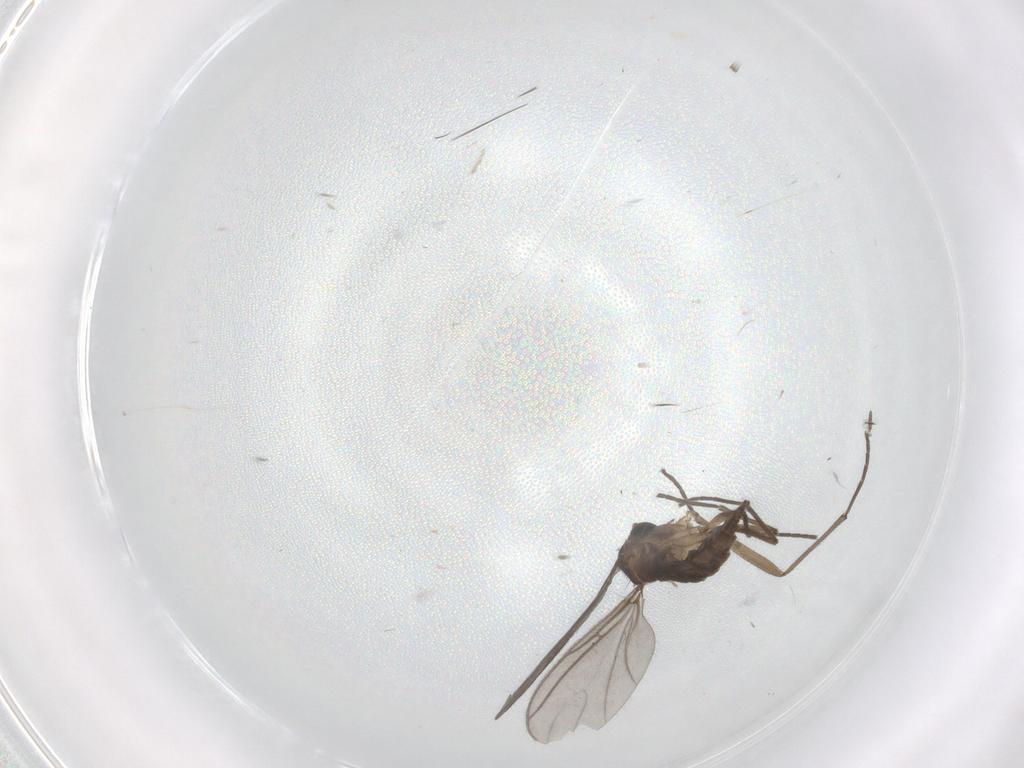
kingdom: Animalia
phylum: Arthropoda
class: Insecta
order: Diptera
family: Sciaridae
